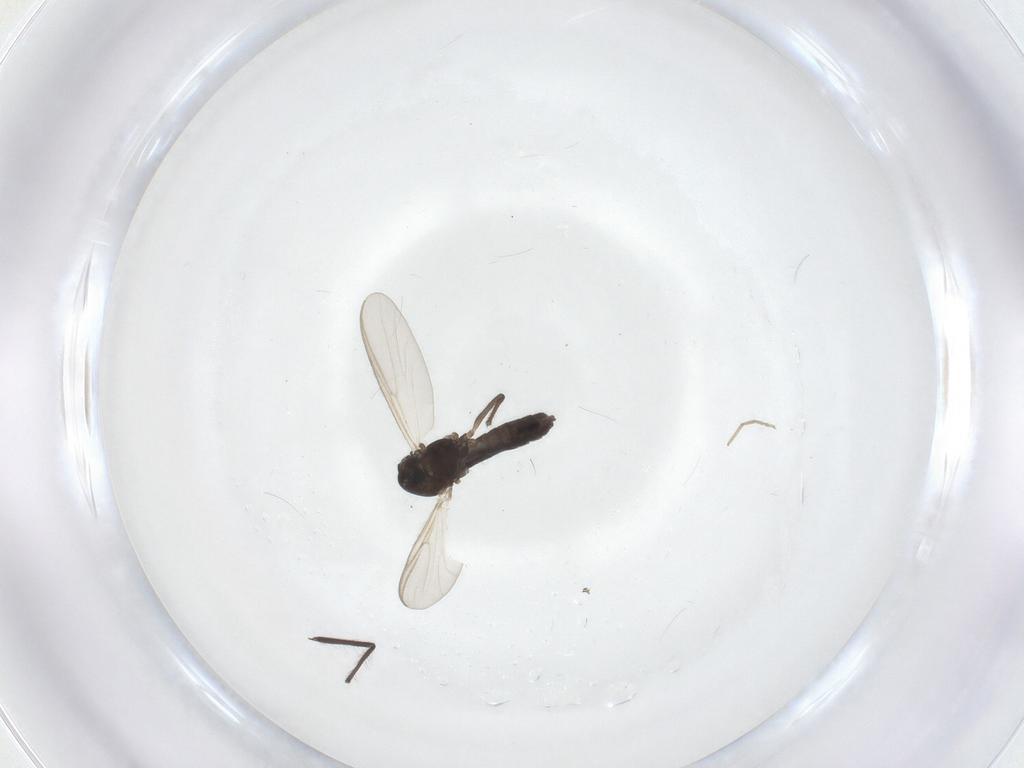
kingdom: Animalia
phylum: Arthropoda
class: Insecta
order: Diptera
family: Chironomidae
